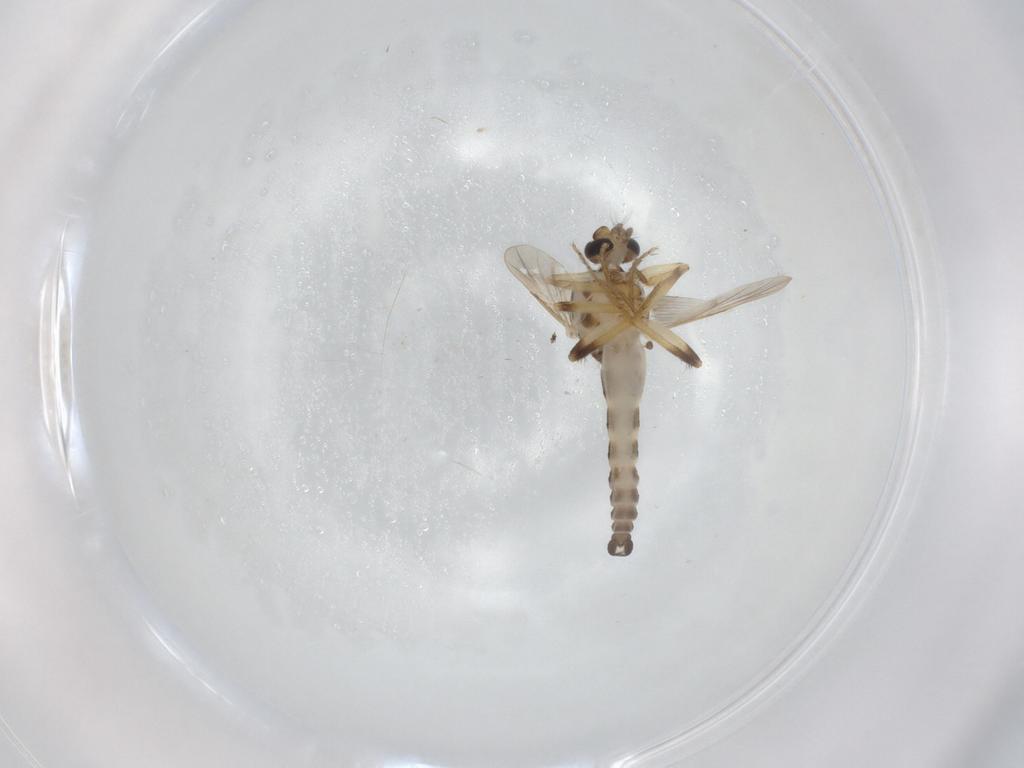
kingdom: Animalia
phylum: Arthropoda
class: Insecta
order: Diptera
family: Ceratopogonidae
